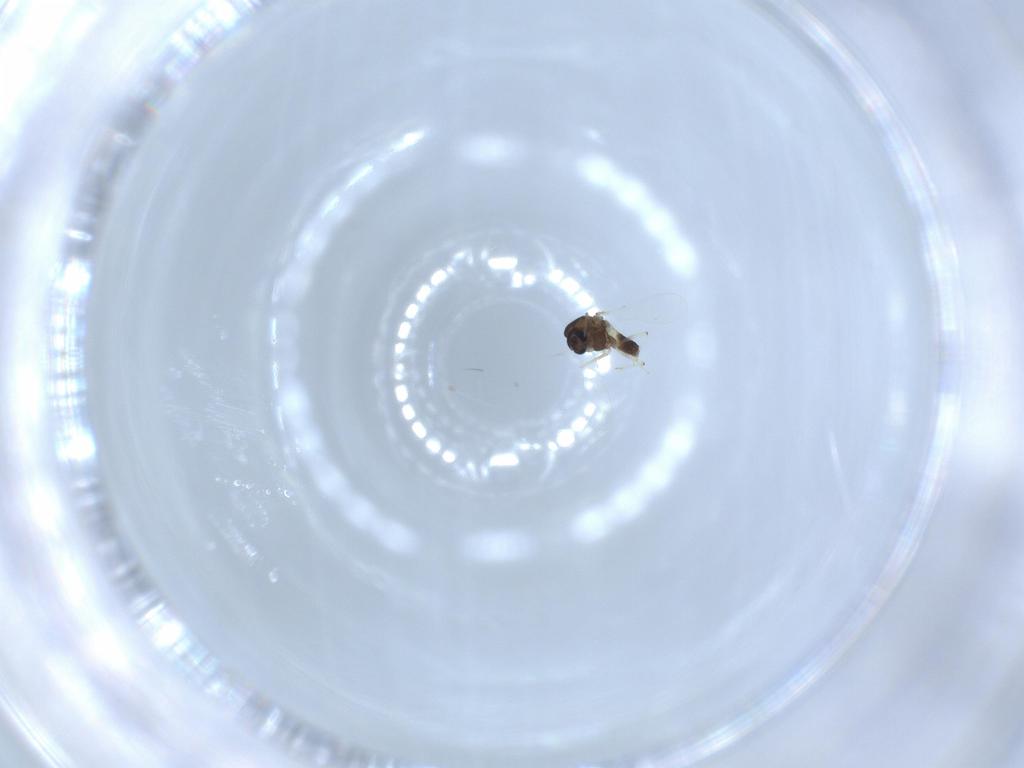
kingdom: Animalia
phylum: Arthropoda
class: Insecta
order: Diptera
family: Chironomidae
